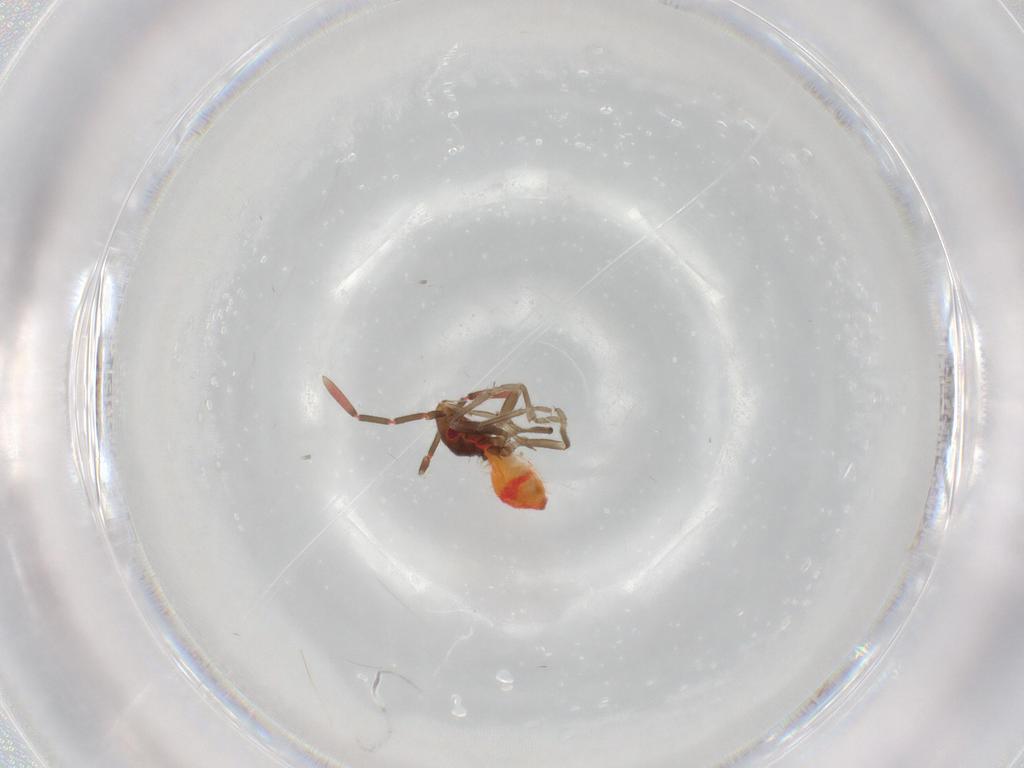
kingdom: Animalia
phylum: Arthropoda
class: Insecta
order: Hemiptera
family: Rhyparochromidae
